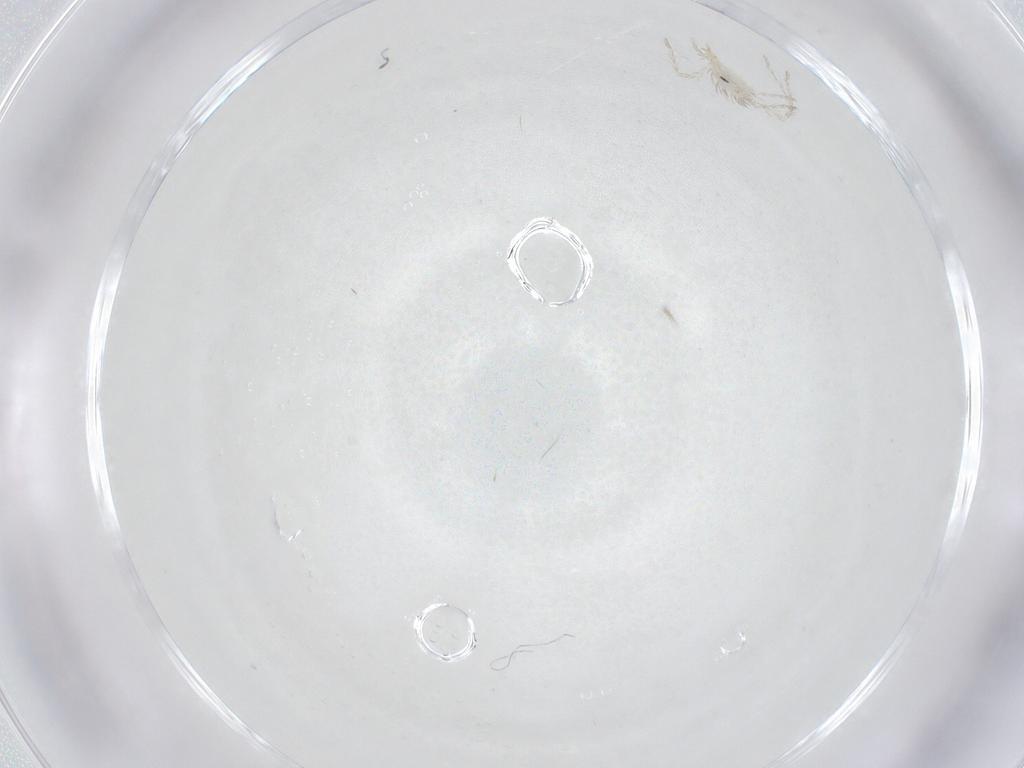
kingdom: Animalia
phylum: Arthropoda
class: Arachnida
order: Trombidiformes
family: Erythraeidae
